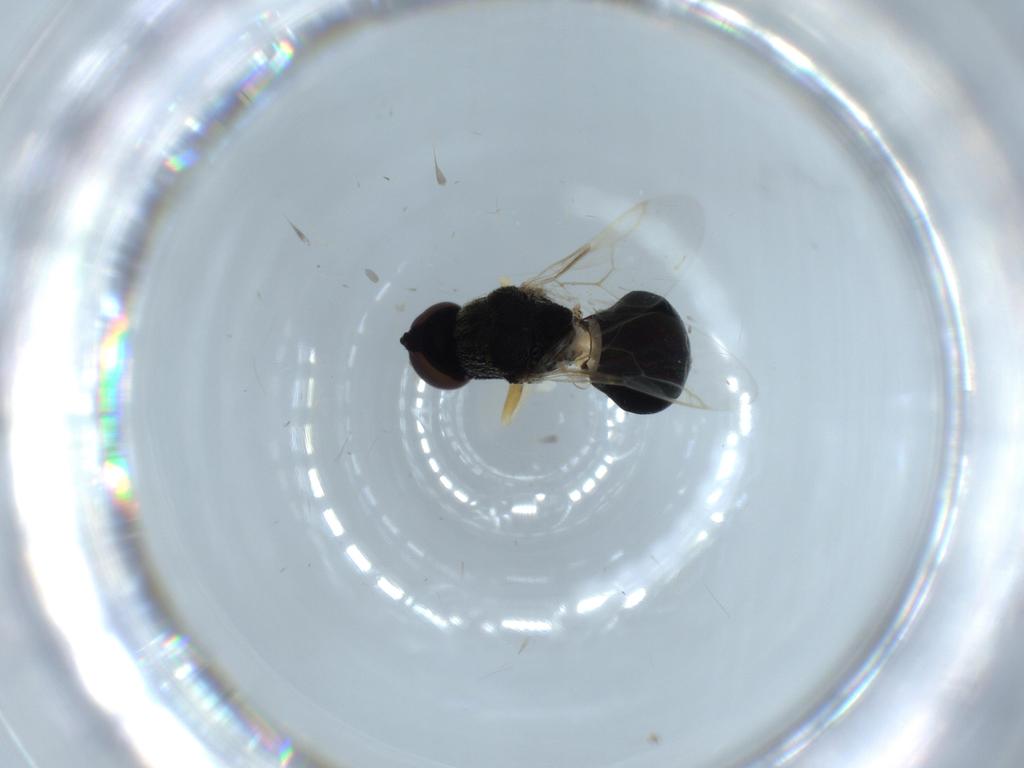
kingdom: Animalia
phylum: Arthropoda
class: Insecta
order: Diptera
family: Stratiomyidae
